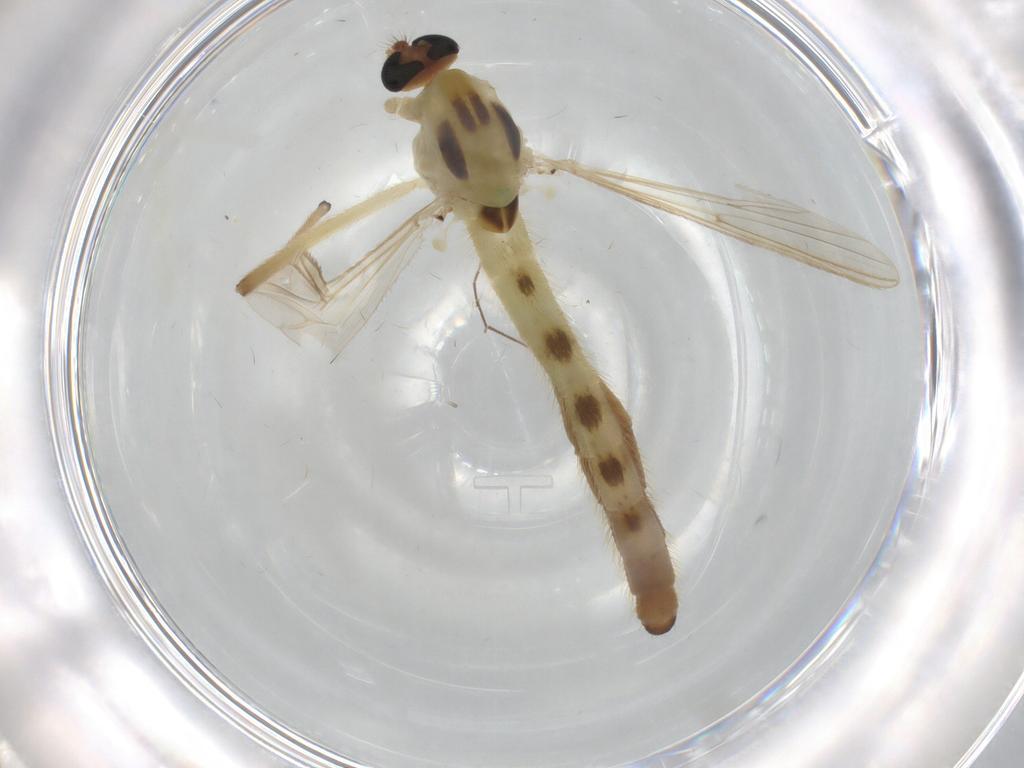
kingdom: Animalia
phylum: Arthropoda
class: Insecta
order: Diptera
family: Chironomidae
